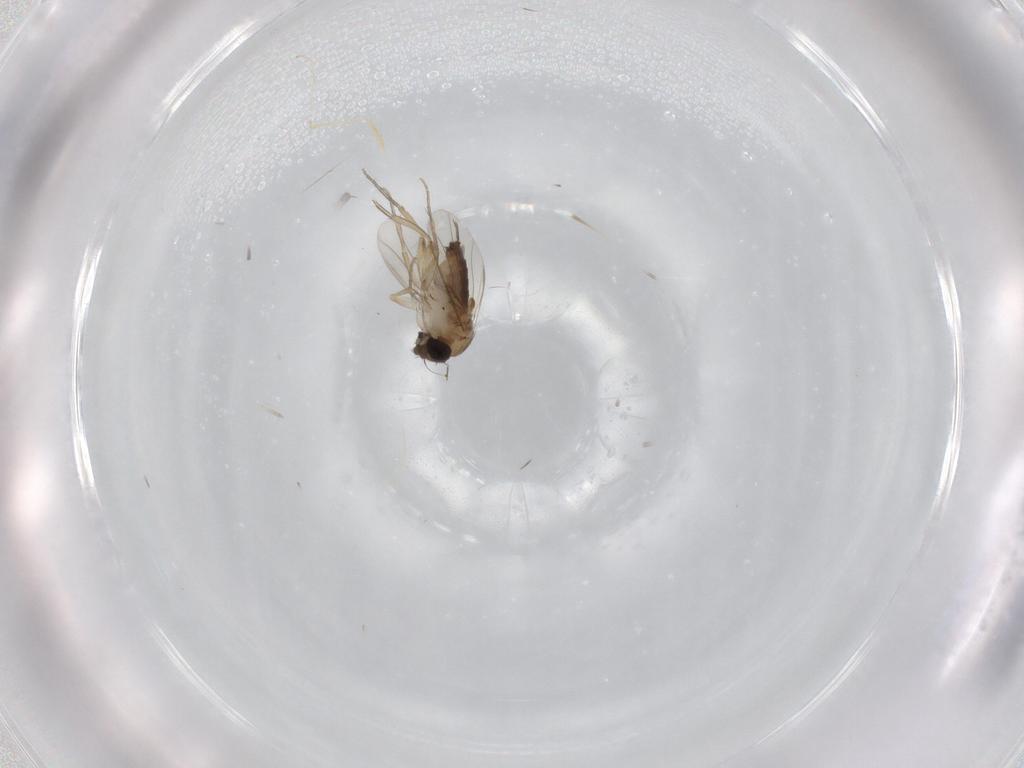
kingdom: Animalia
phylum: Arthropoda
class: Insecta
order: Diptera
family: Phoridae
